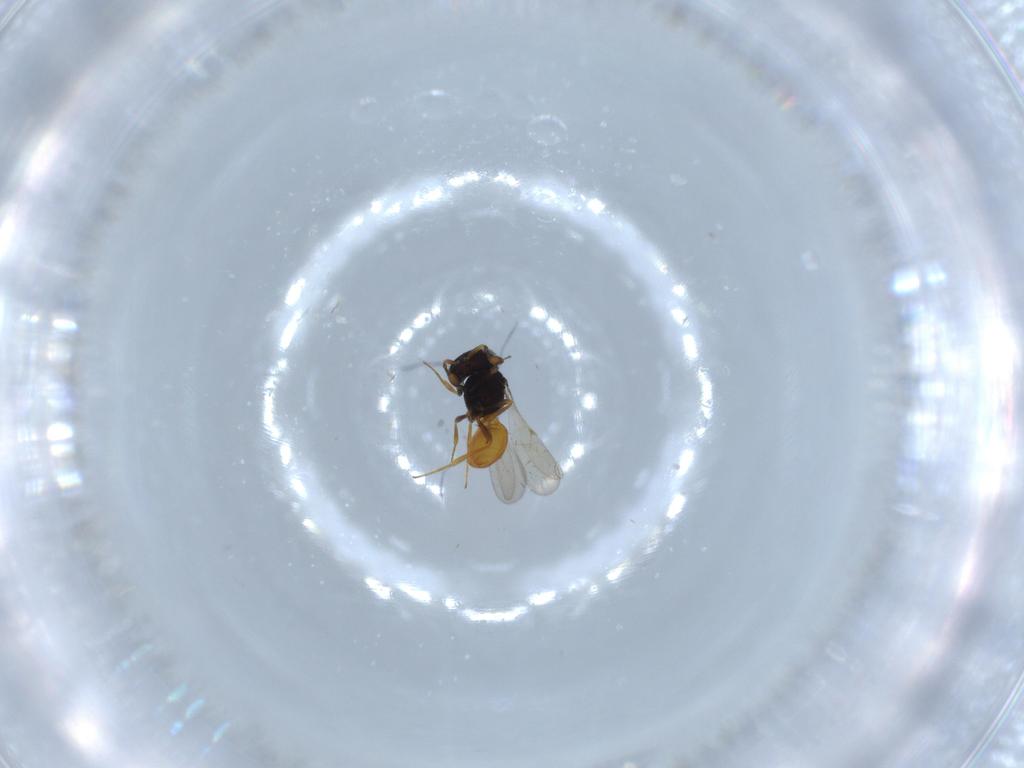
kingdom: Animalia
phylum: Arthropoda
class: Insecta
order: Hymenoptera
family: Scelionidae
